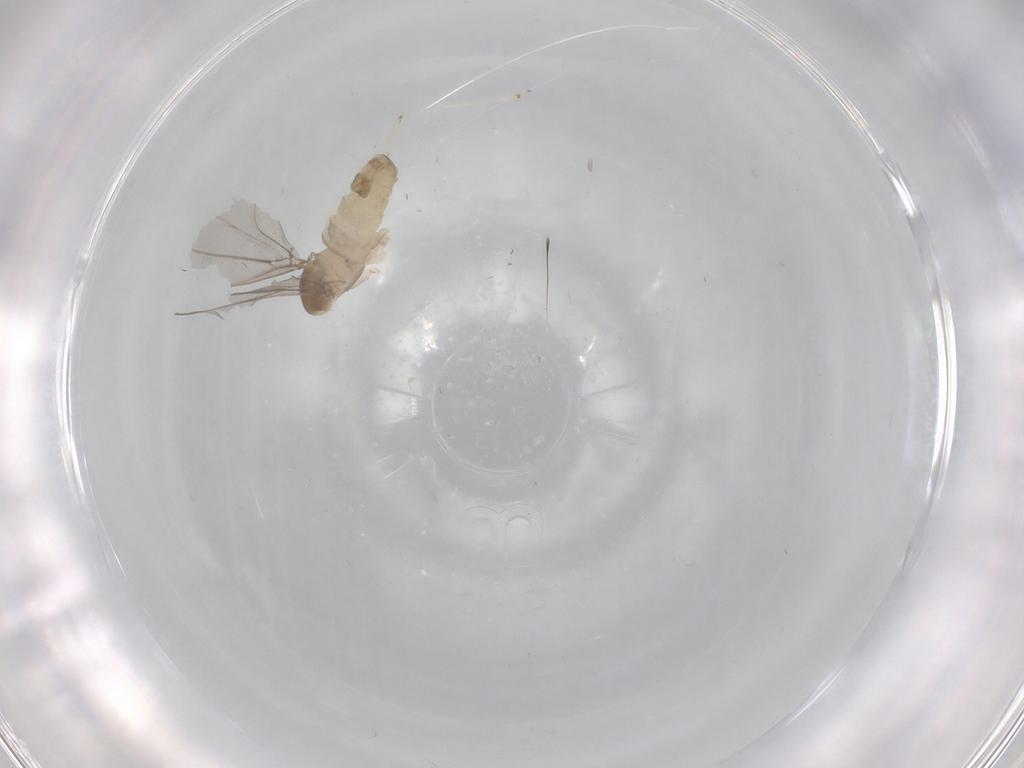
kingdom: Animalia
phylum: Arthropoda
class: Insecta
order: Diptera
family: Cecidomyiidae
